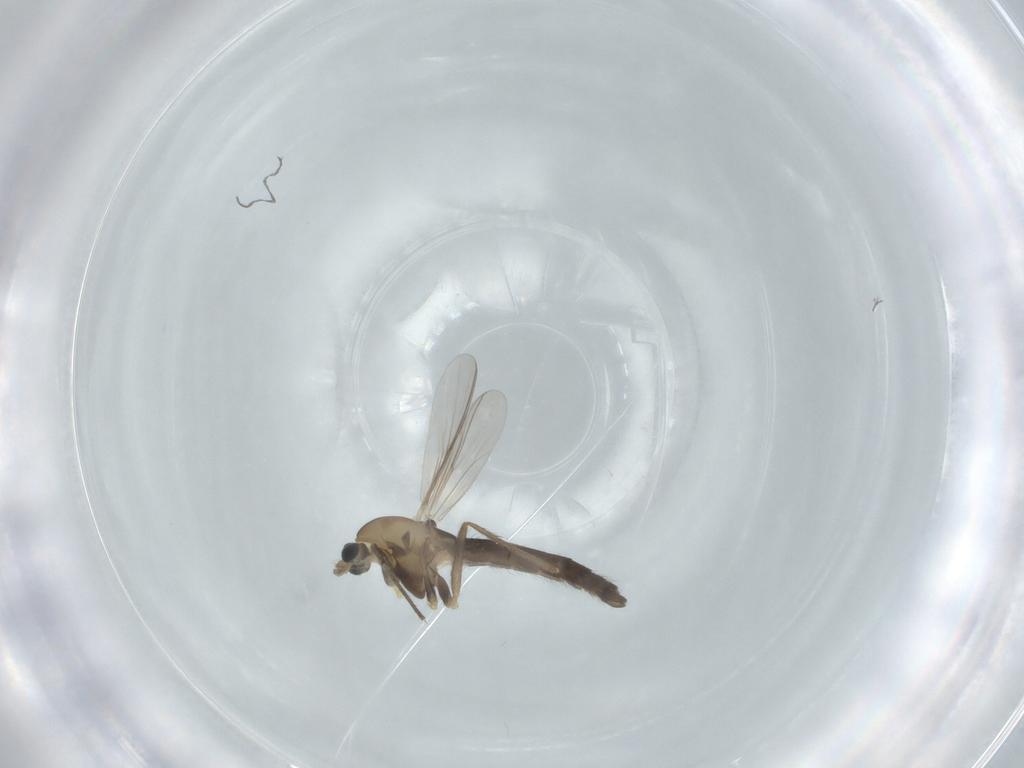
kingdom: Animalia
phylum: Arthropoda
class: Insecta
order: Diptera
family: Chironomidae
